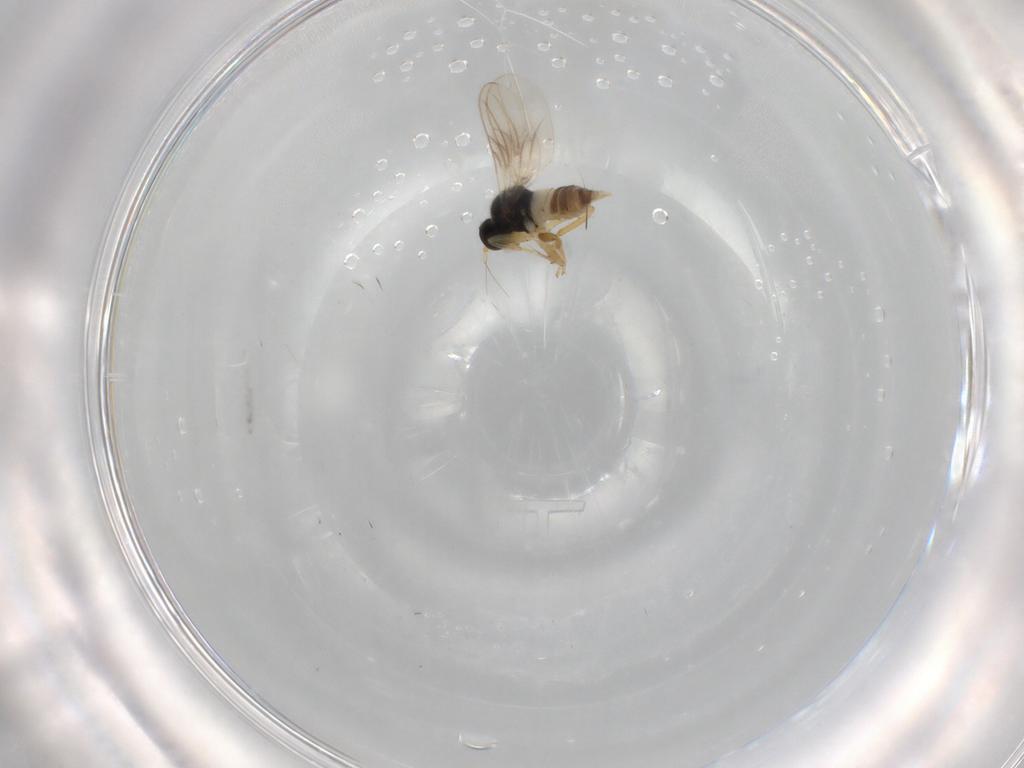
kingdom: Animalia
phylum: Arthropoda
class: Insecta
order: Diptera
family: Hybotidae
